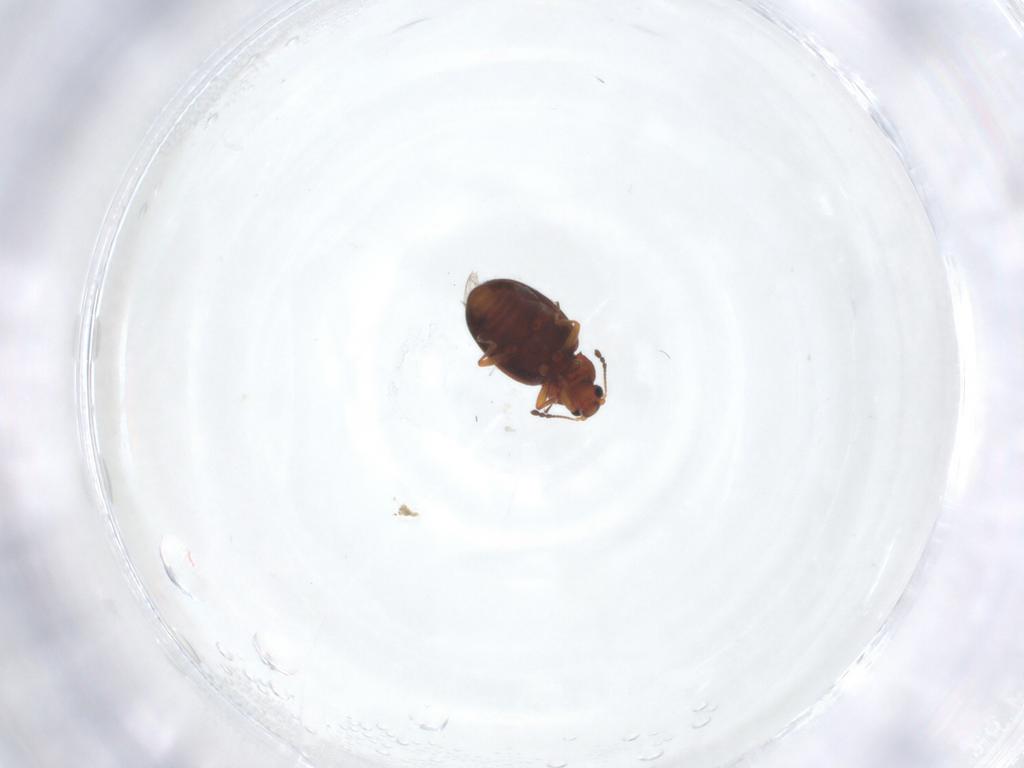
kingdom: Animalia
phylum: Arthropoda
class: Insecta
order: Coleoptera
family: Latridiidae
